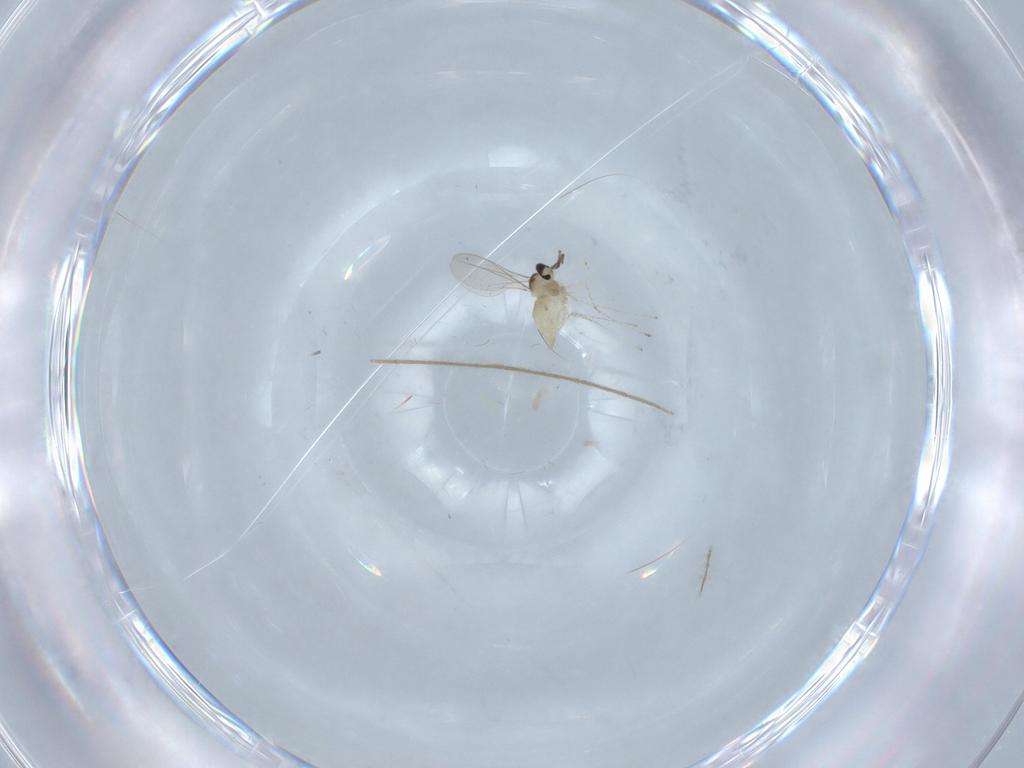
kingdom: Animalia
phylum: Arthropoda
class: Insecta
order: Diptera
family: Cecidomyiidae
